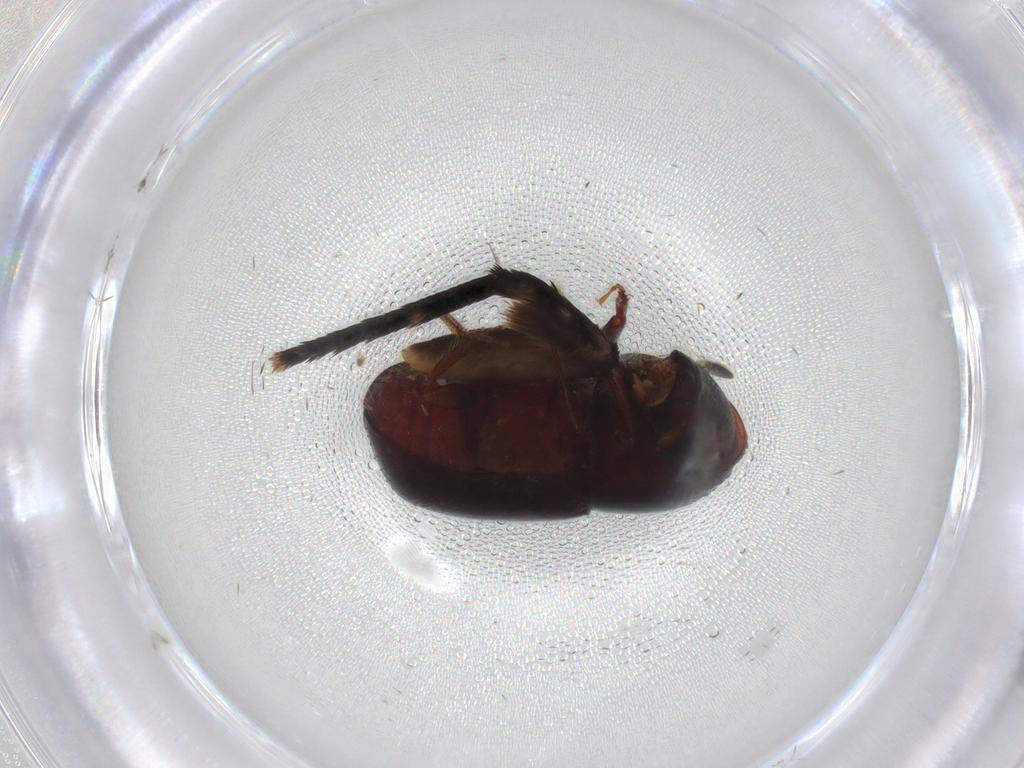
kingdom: Animalia
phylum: Arthropoda
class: Insecta
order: Coleoptera
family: Curculionidae
